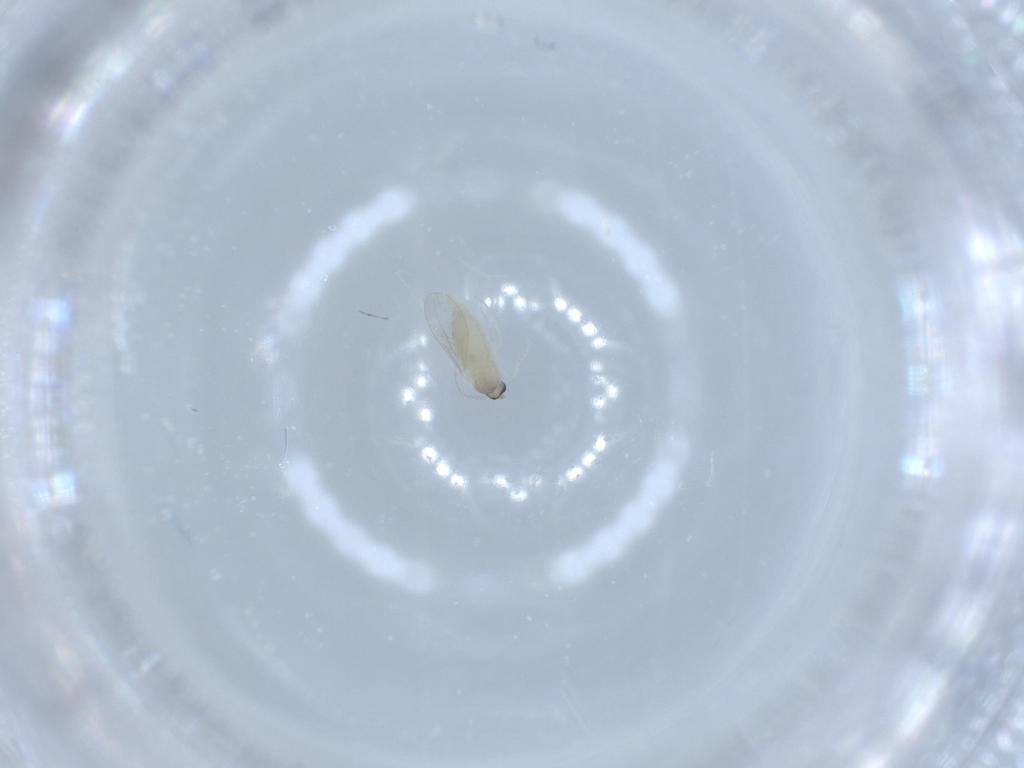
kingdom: Animalia
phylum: Arthropoda
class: Insecta
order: Diptera
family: Cecidomyiidae
